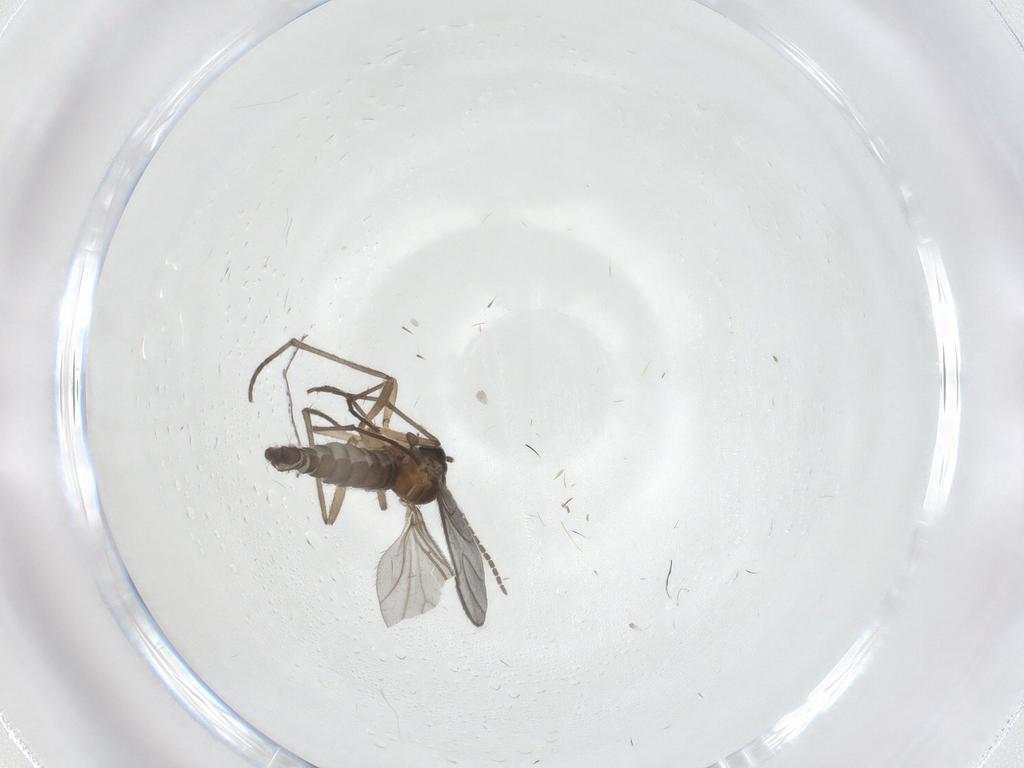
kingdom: Animalia
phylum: Arthropoda
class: Insecta
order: Diptera
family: Sciaridae
